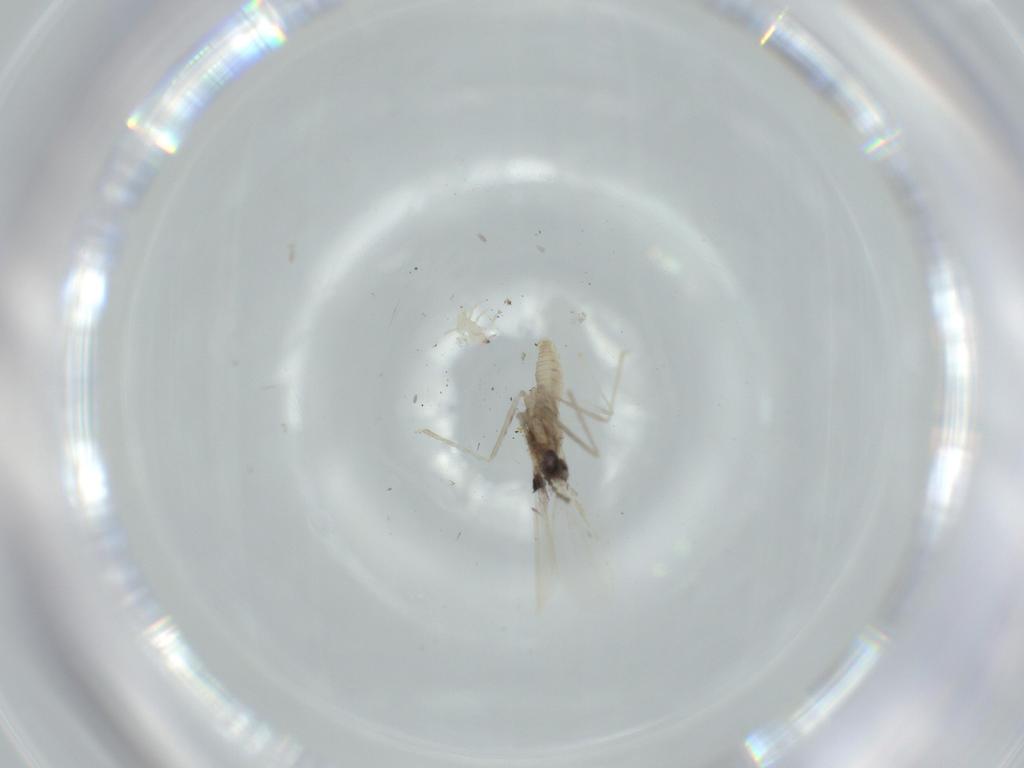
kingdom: Animalia
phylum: Arthropoda
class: Insecta
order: Diptera
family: Cecidomyiidae
